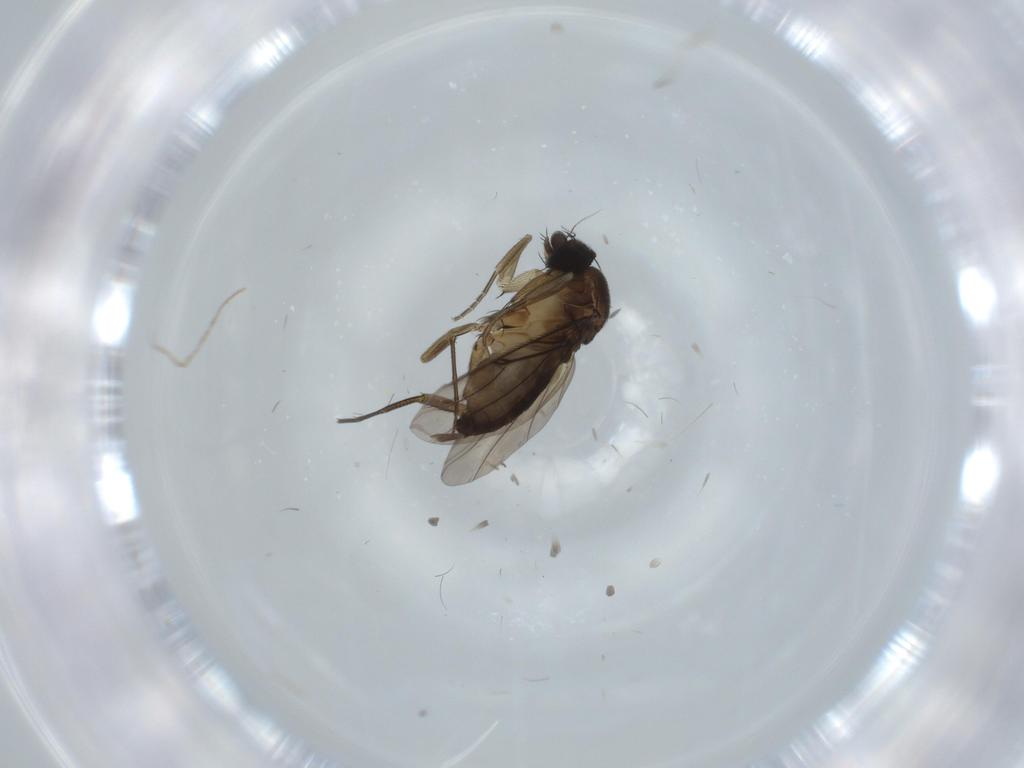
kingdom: Animalia
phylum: Arthropoda
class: Insecta
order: Diptera
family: Phoridae
